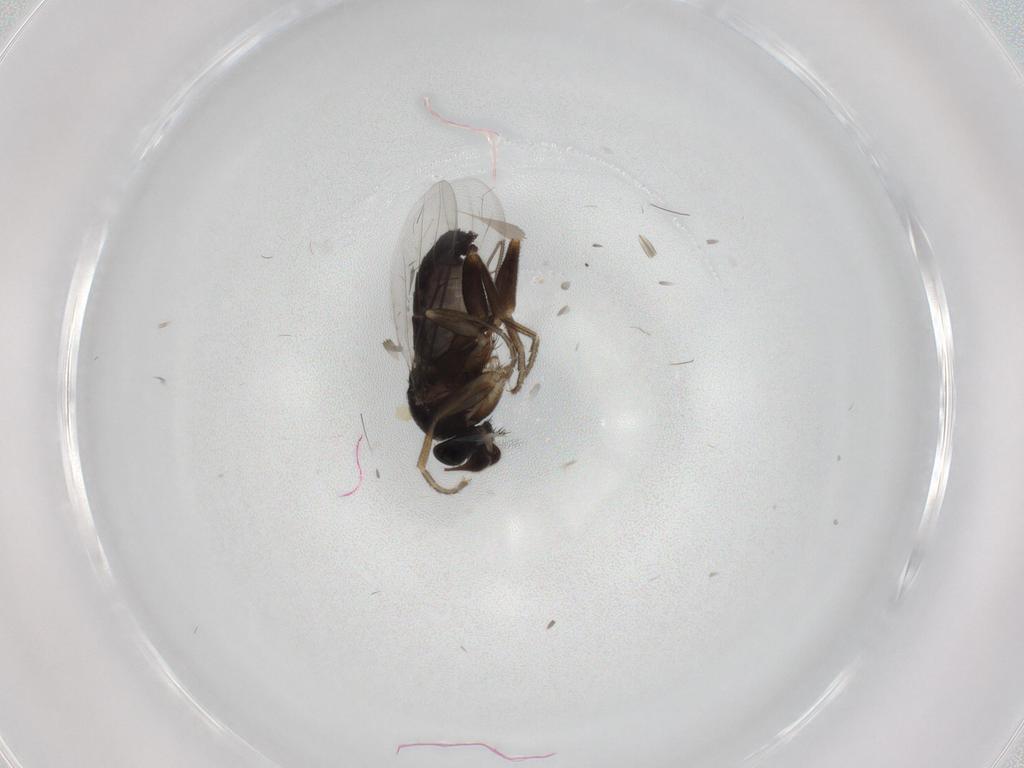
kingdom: Animalia
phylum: Arthropoda
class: Insecta
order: Diptera
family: Phoridae
